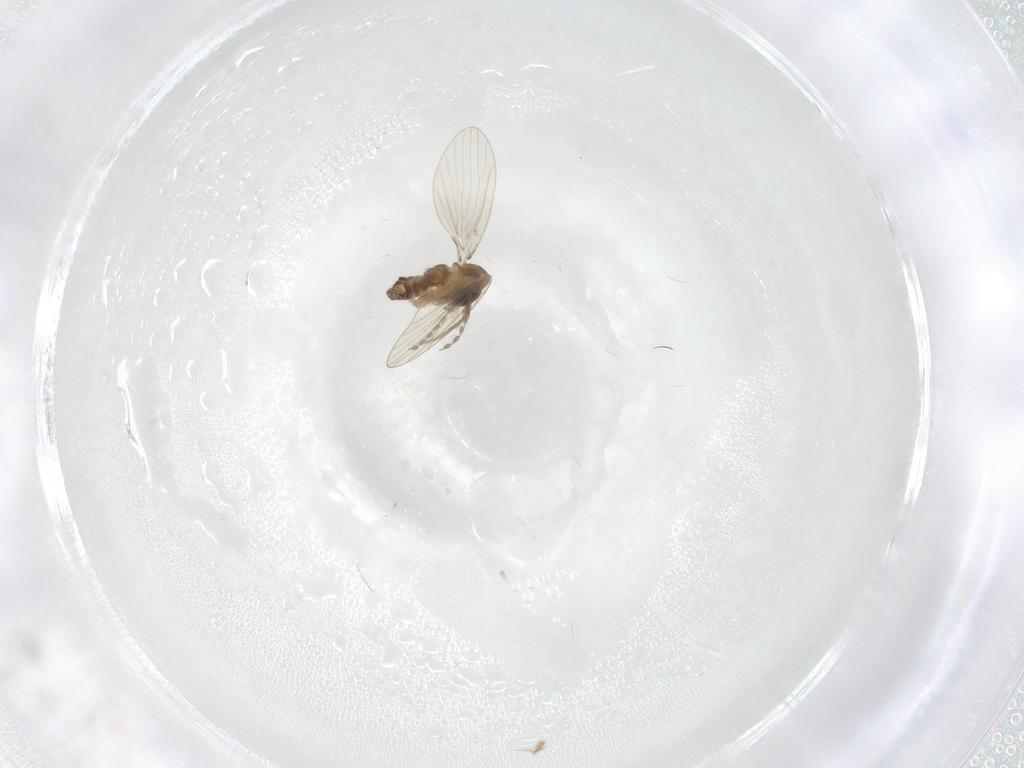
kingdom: Animalia
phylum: Arthropoda
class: Insecta
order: Diptera
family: Psychodidae
